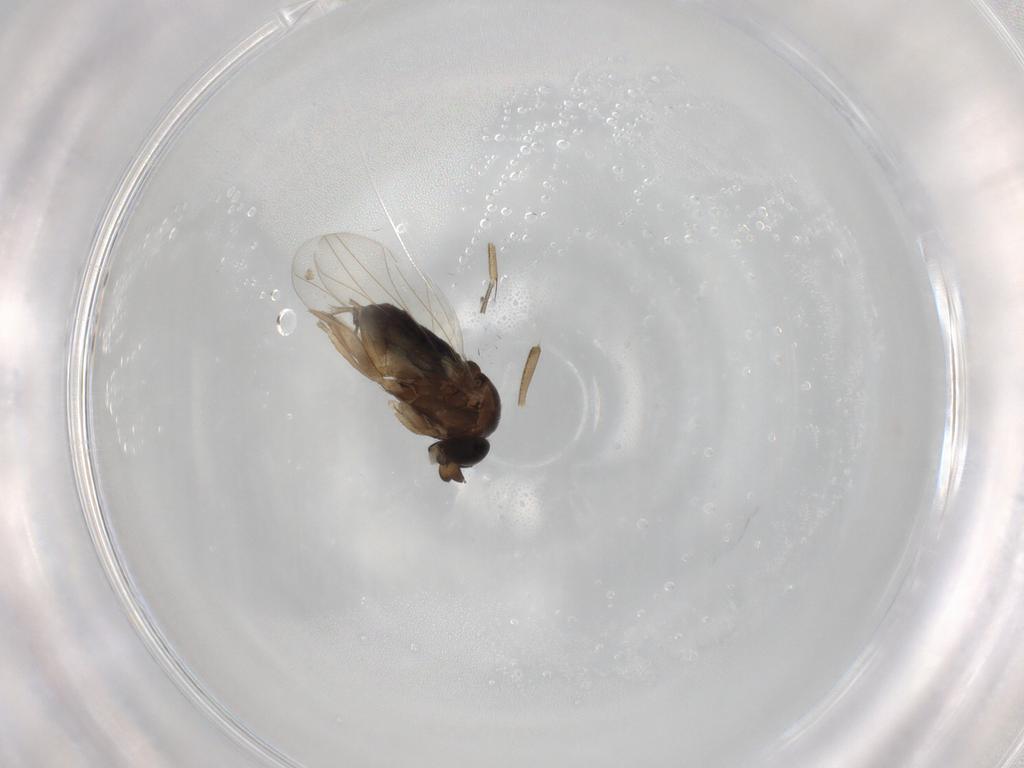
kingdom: Animalia
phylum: Arthropoda
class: Insecta
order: Diptera
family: Phoridae
